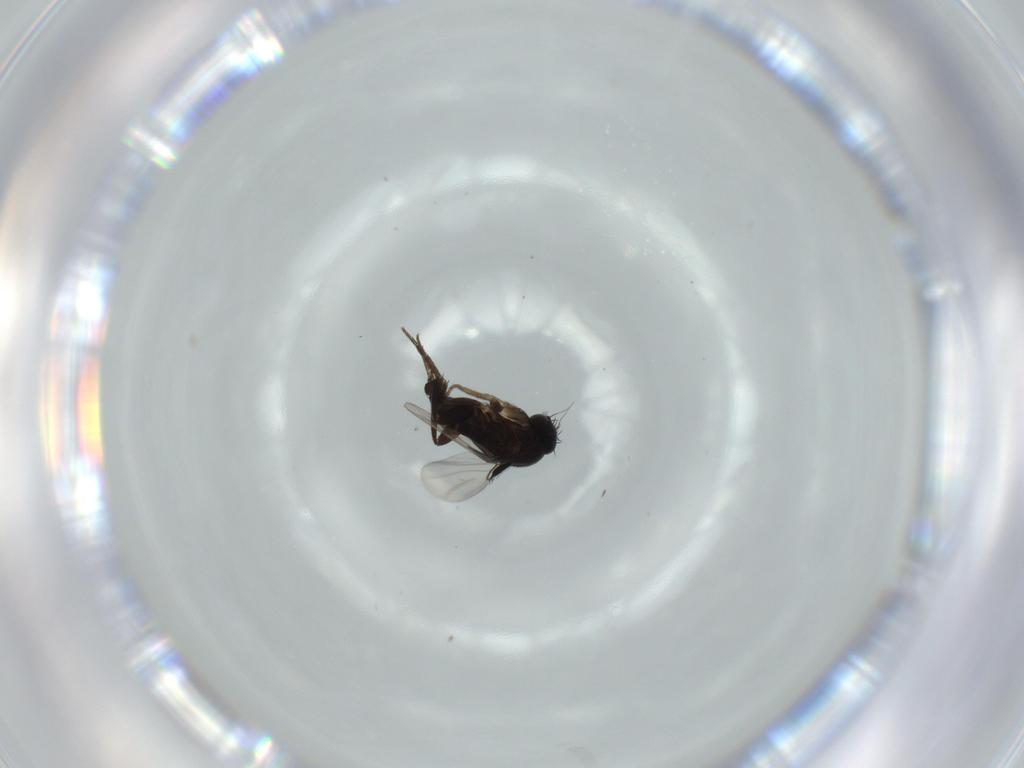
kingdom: Animalia
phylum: Arthropoda
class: Insecta
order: Diptera
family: Phoridae
